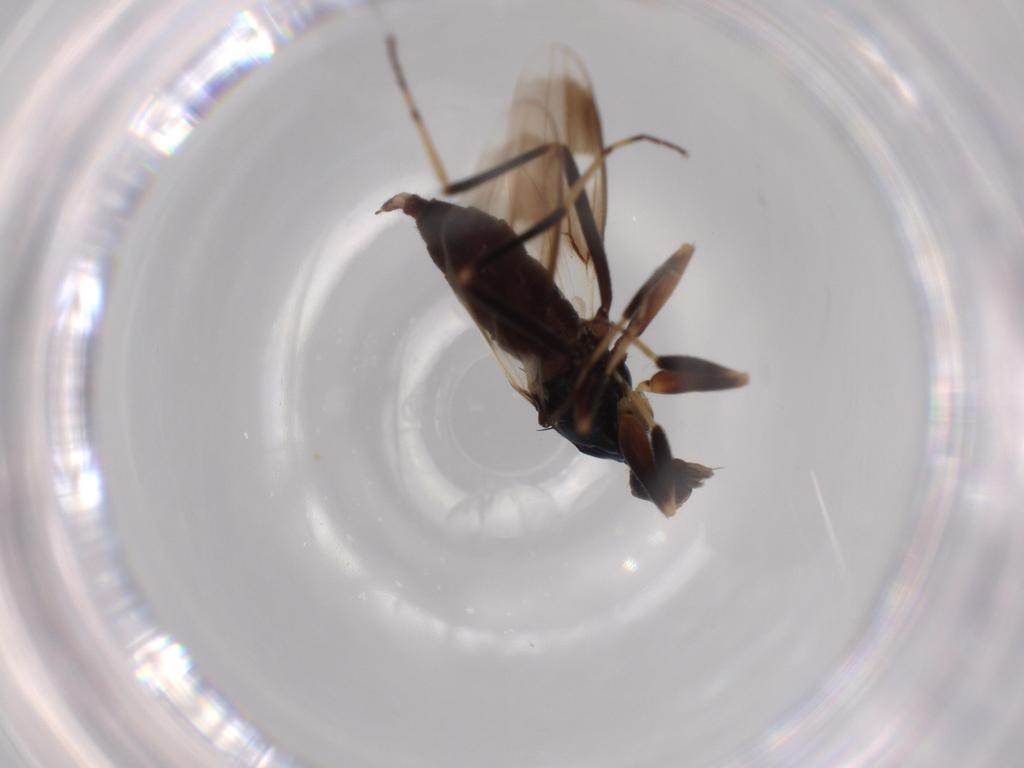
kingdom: Animalia
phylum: Arthropoda
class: Insecta
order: Diptera
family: Hybotidae
